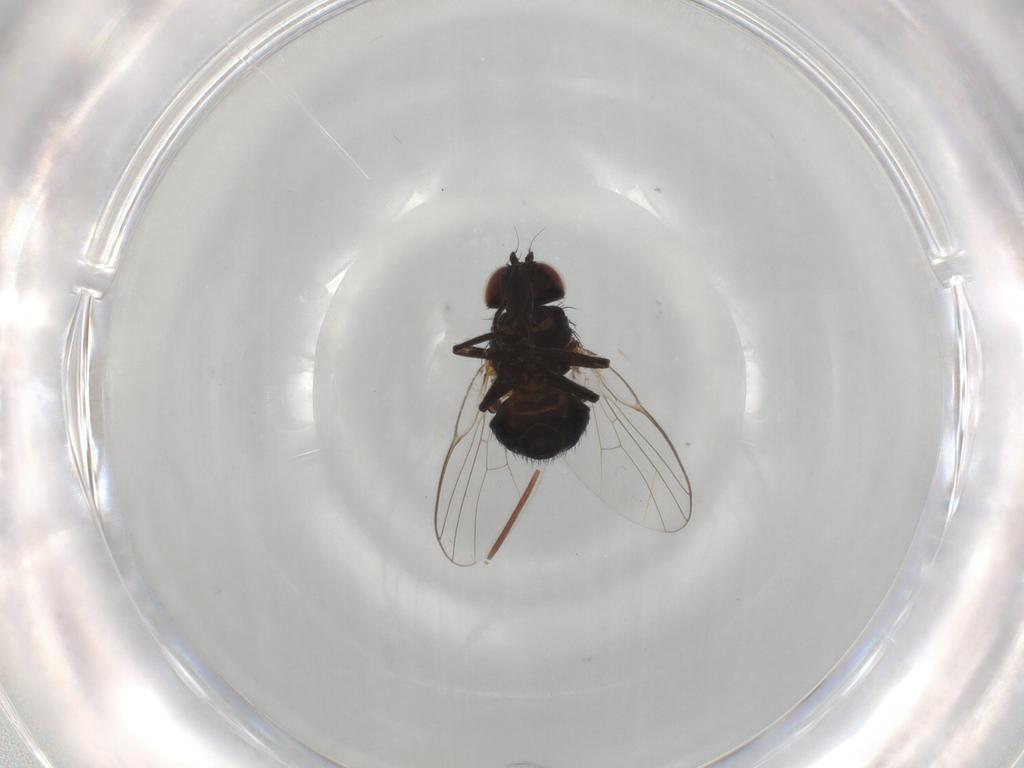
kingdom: Animalia
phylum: Arthropoda
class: Insecta
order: Diptera
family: Agromyzidae
